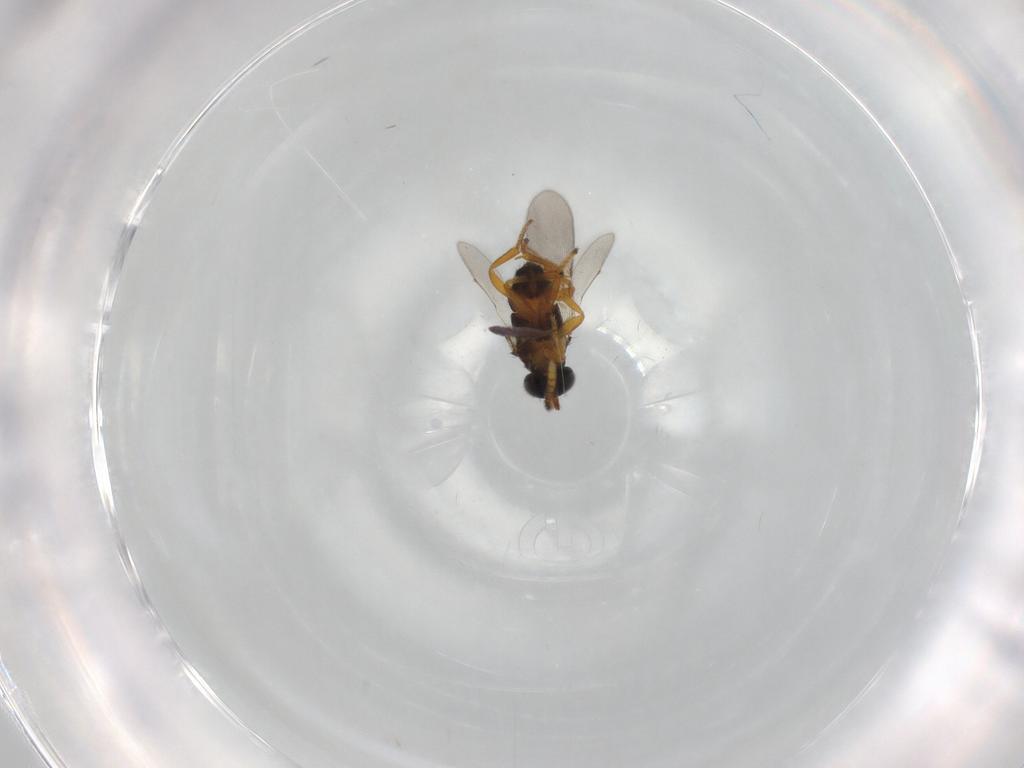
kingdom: Animalia
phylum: Arthropoda
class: Insecta
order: Hymenoptera
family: Encyrtidae
